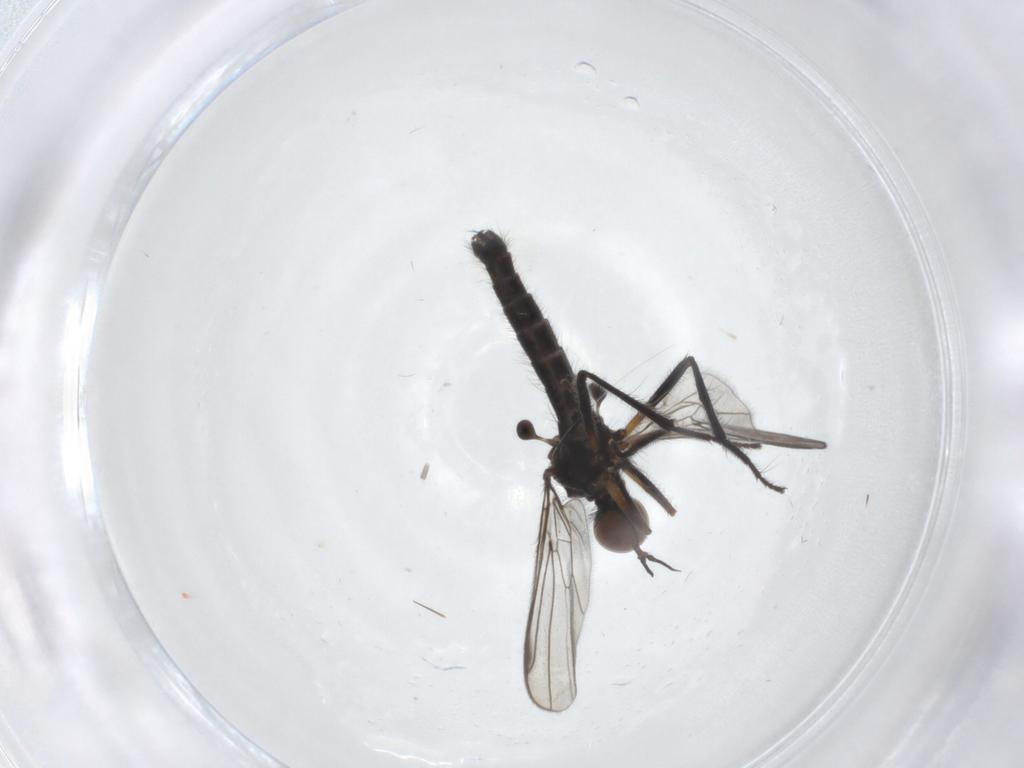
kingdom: Animalia
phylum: Arthropoda
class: Insecta
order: Diptera
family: Empididae
